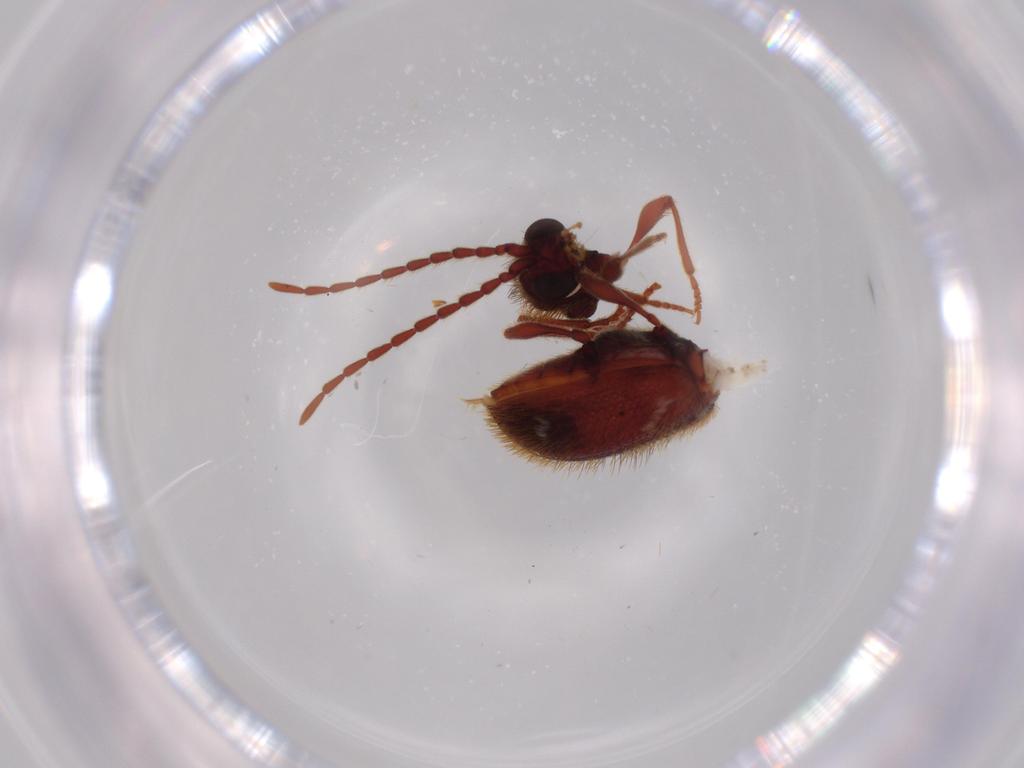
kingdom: Animalia
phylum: Arthropoda
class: Insecta
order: Coleoptera
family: Ptinidae
